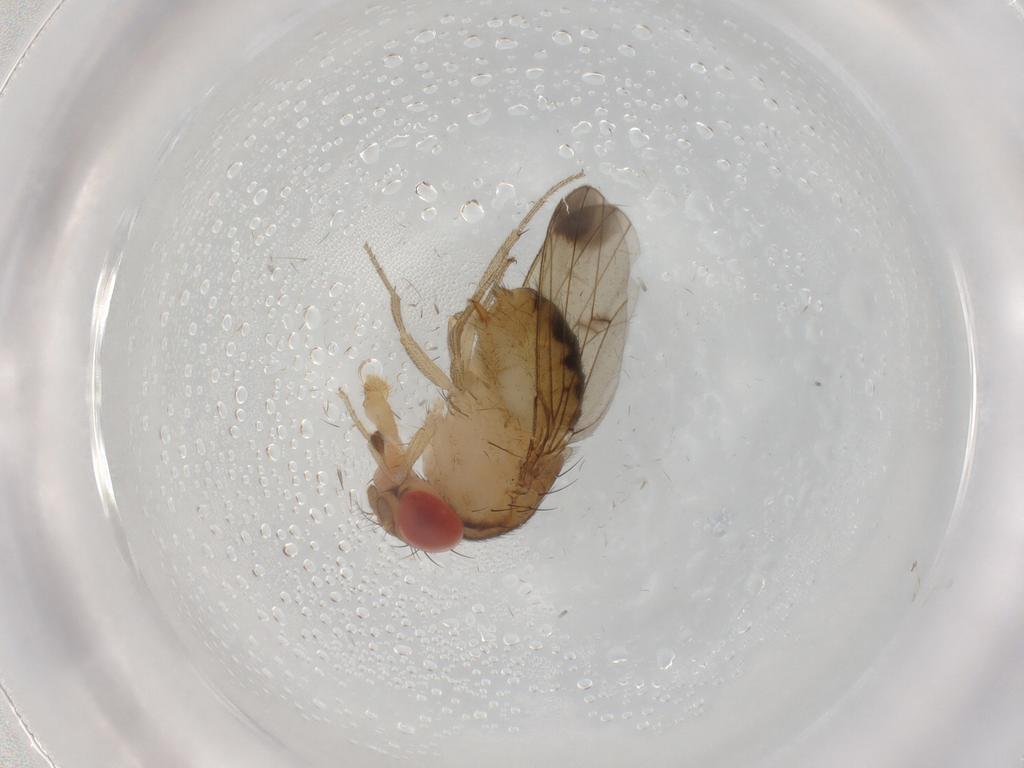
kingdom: Animalia
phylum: Arthropoda
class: Insecta
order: Diptera
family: Drosophilidae
